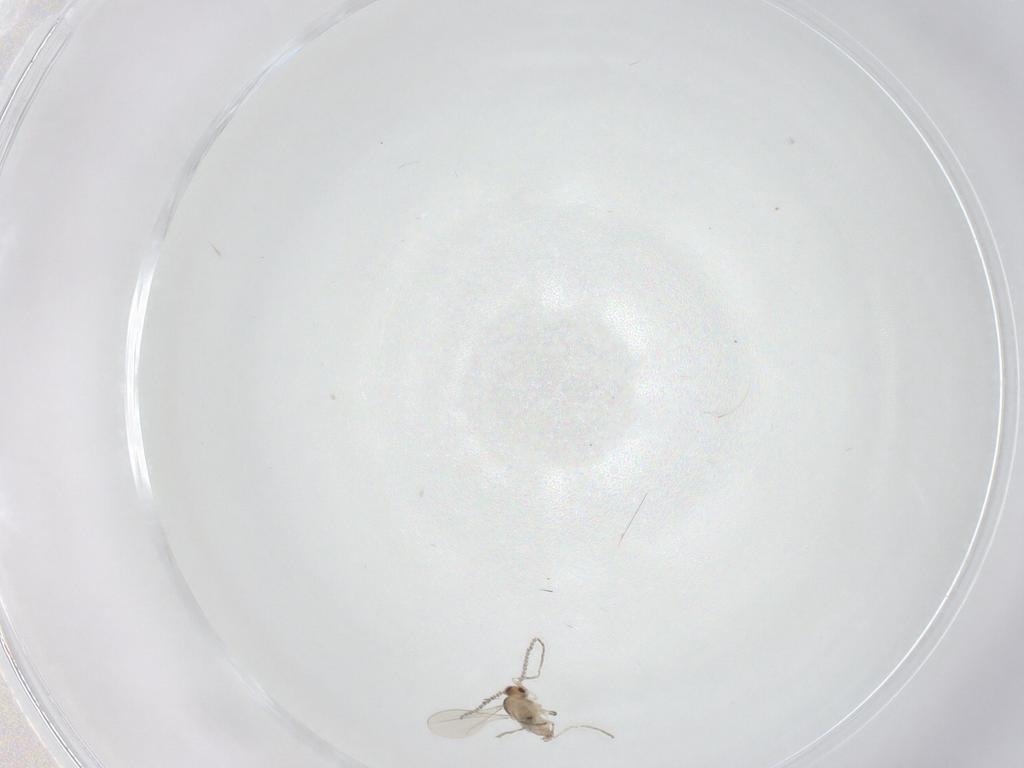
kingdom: Animalia
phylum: Arthropoda
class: Insecta
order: Diptera
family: Cecidomyiidae
